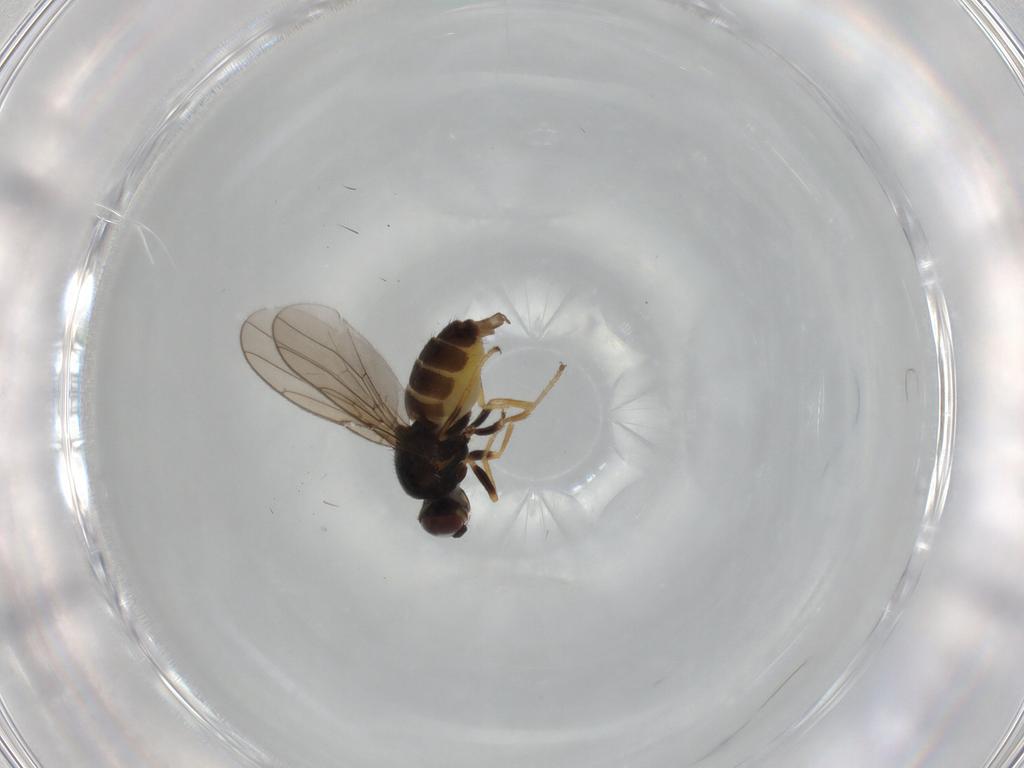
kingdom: Animalia
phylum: Arthropoda
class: Insecta
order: Diptera
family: Chloropidae
